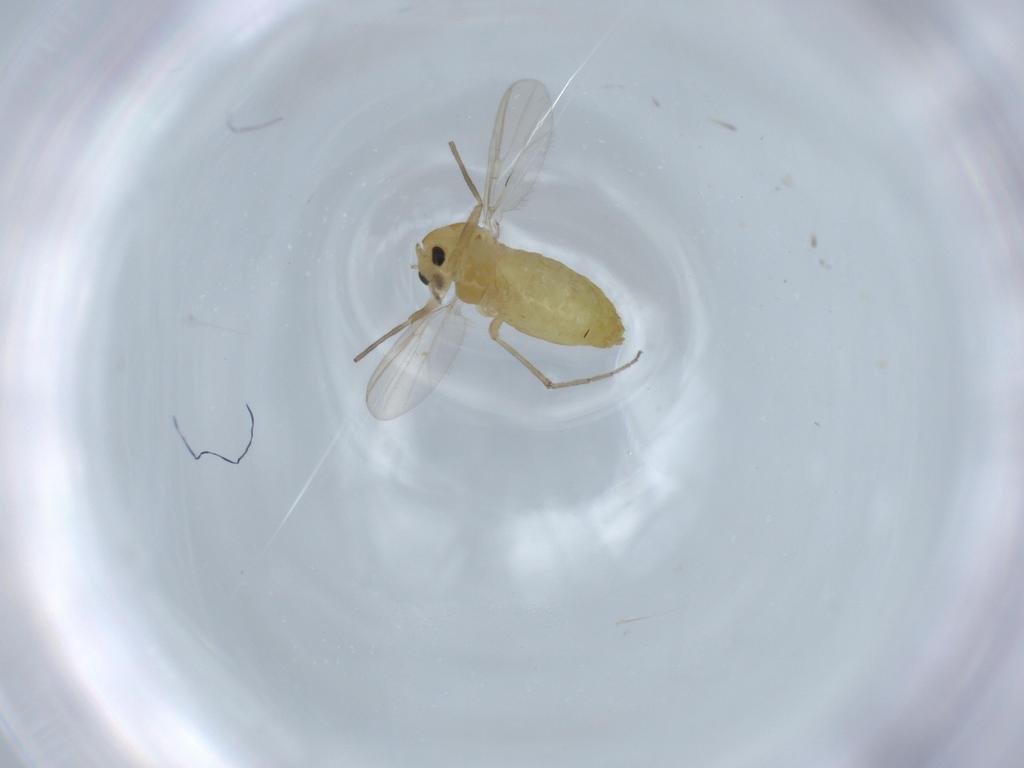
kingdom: Animalia
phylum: Arthropoda
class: Insecta
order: Diptera
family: Chironomidae
